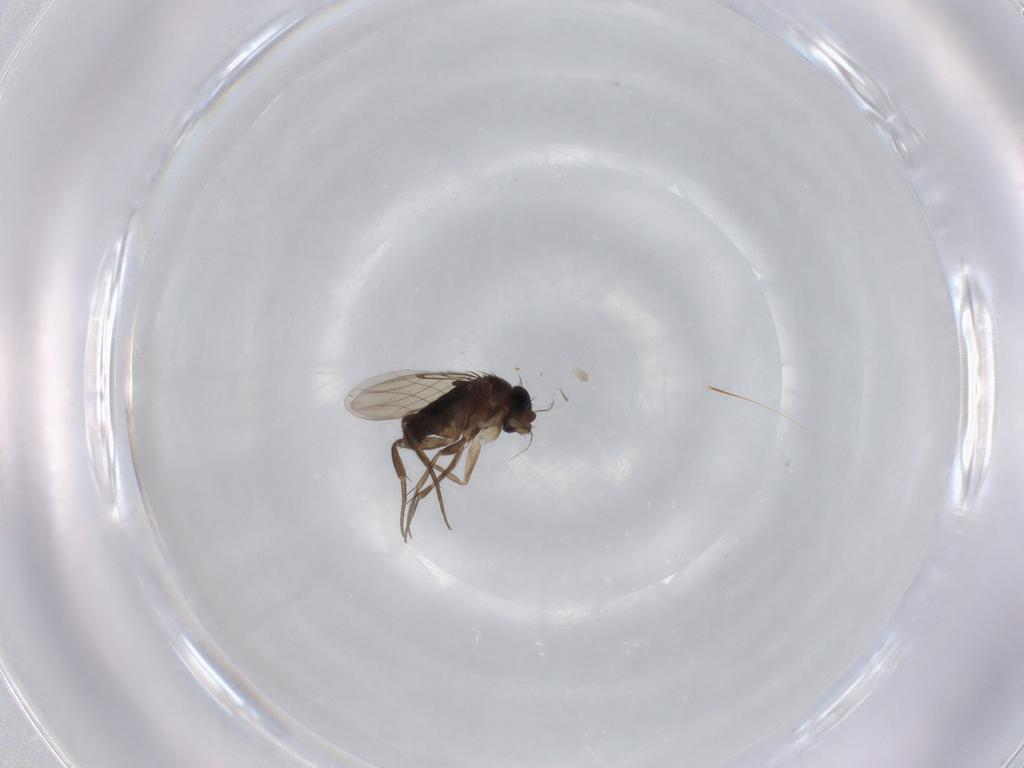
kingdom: Animalia
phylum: Arthropoda
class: Insecta
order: Diptera
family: Phoridae
